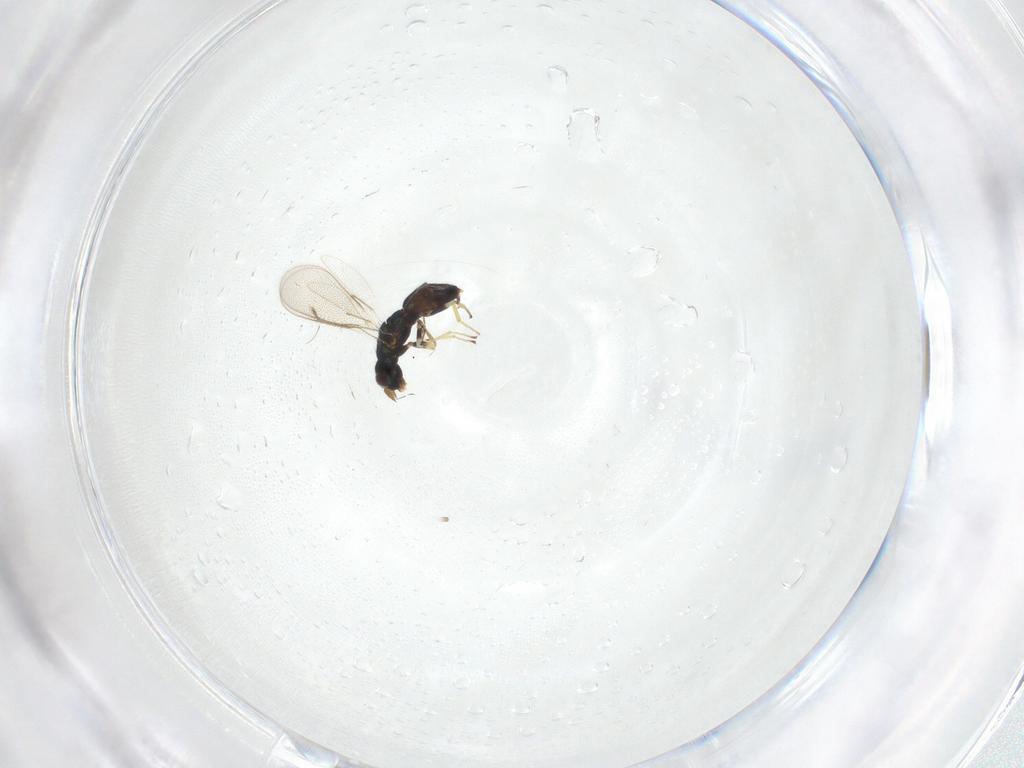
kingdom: Animalia
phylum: Arthropoda
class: Insecta
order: Hymenoptera
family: Eulophidae
